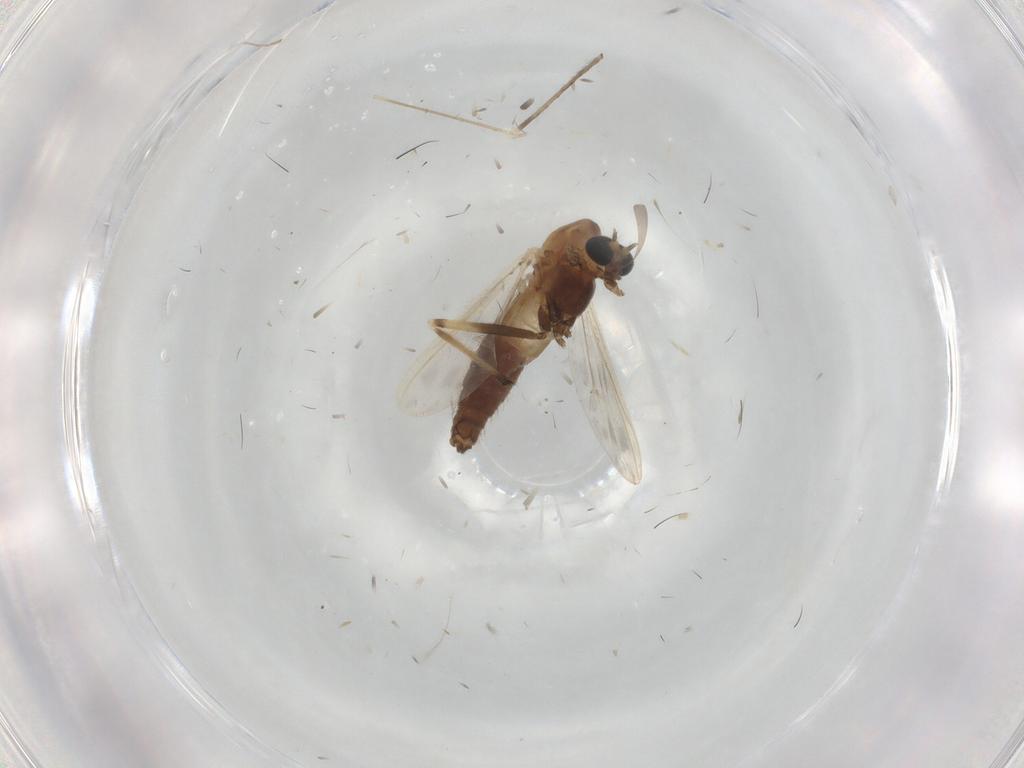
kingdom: Animalia
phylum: Arthropoda
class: Insecta
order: Diptera
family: Chironomidae
